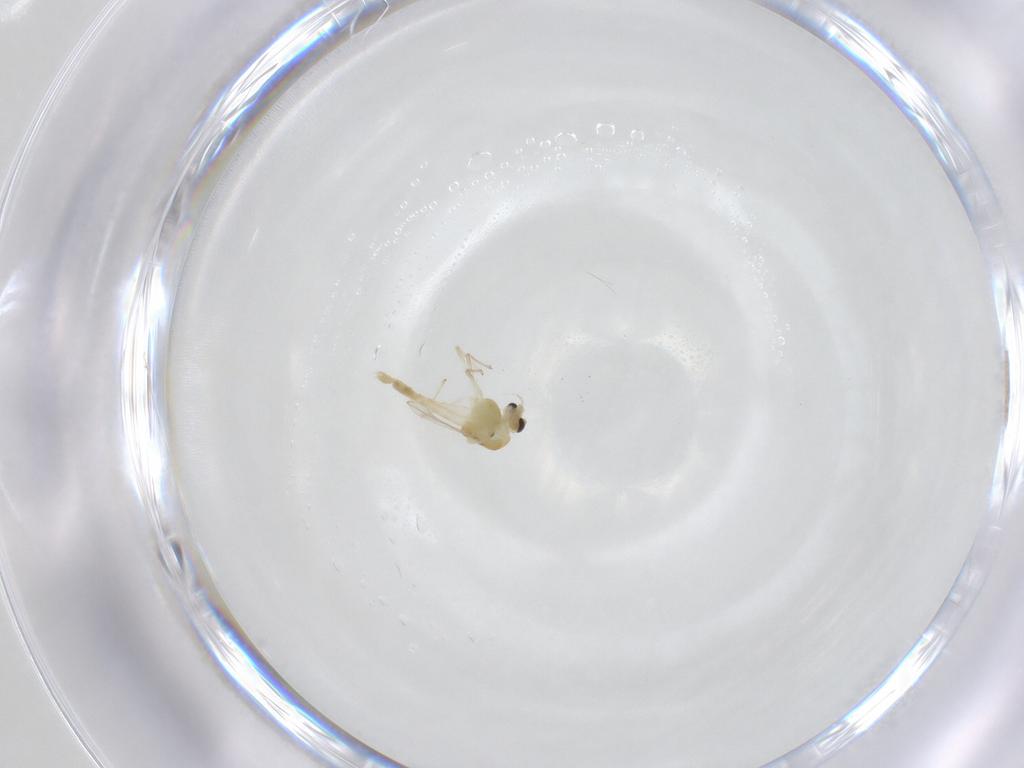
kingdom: Animalia
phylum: Arthropoda
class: Insecta
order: Diptera
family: Chironomidae
